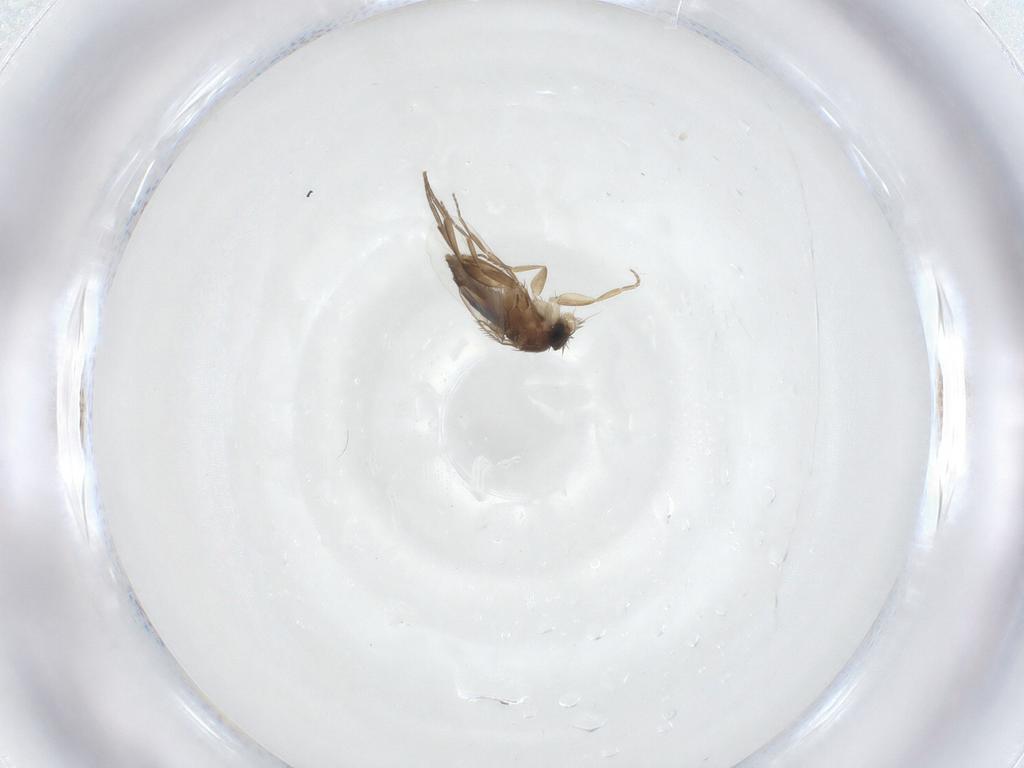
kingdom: Animalia
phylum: Arthropoda
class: Insecta
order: Diptera
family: Phoridae
